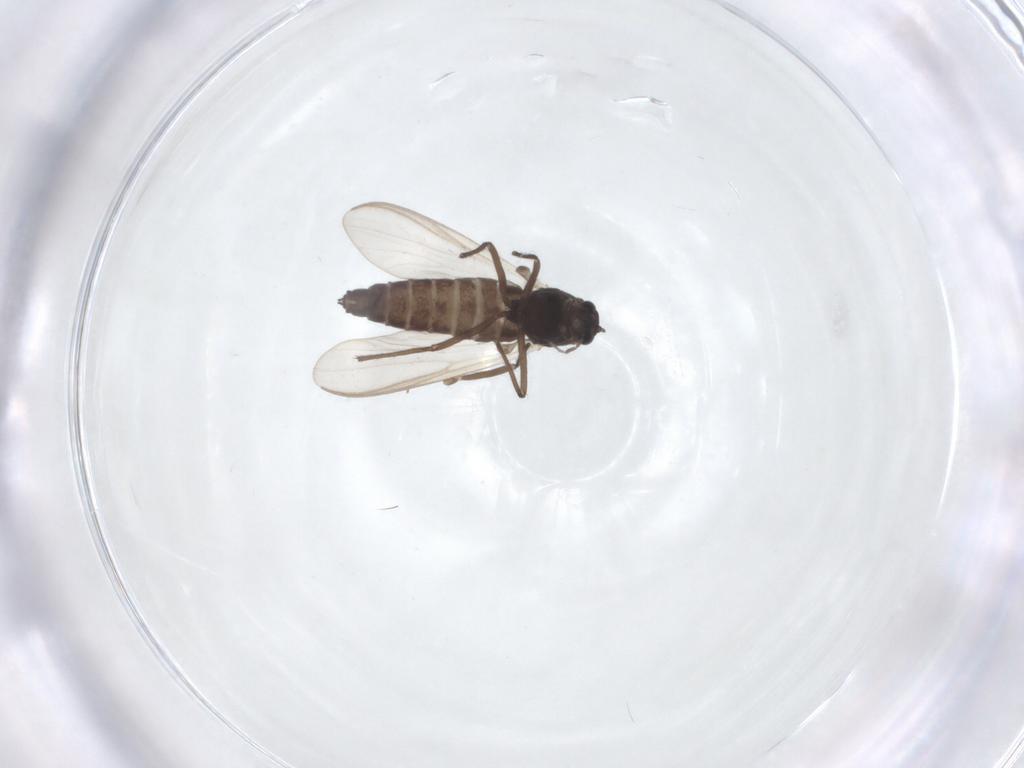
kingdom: Animalia
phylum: Arthropoda
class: Insecta
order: Diptera
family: Chironomidae
